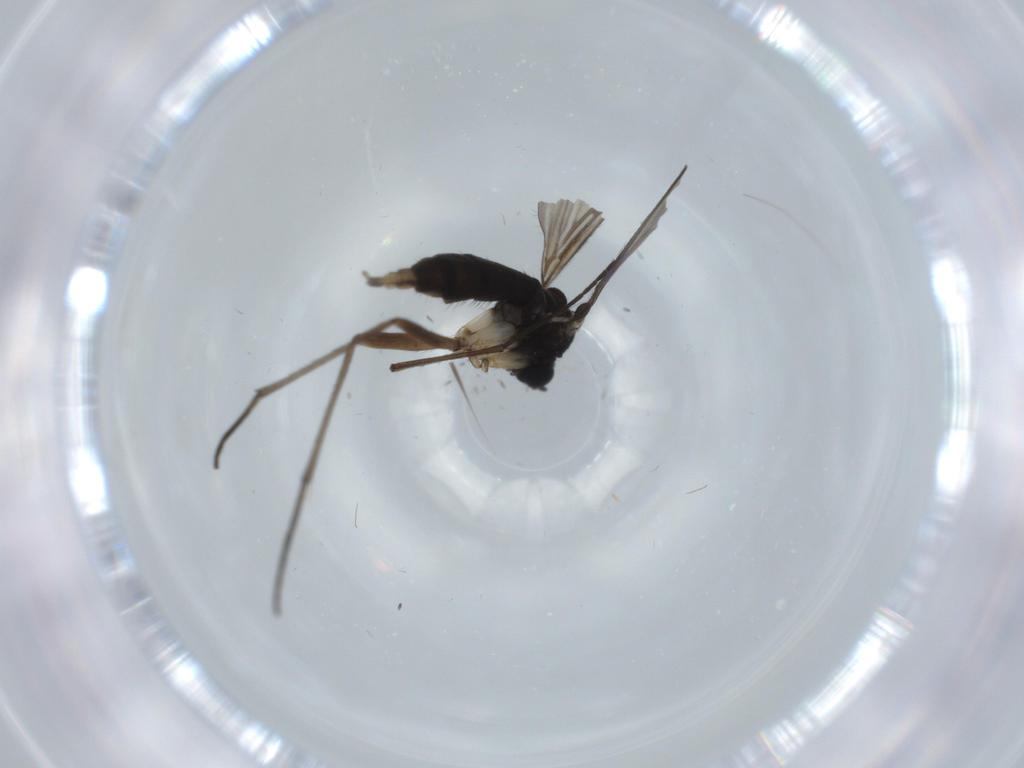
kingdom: Animalia
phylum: Arthropoda
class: Insecta
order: Diptera
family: Sciaridae
